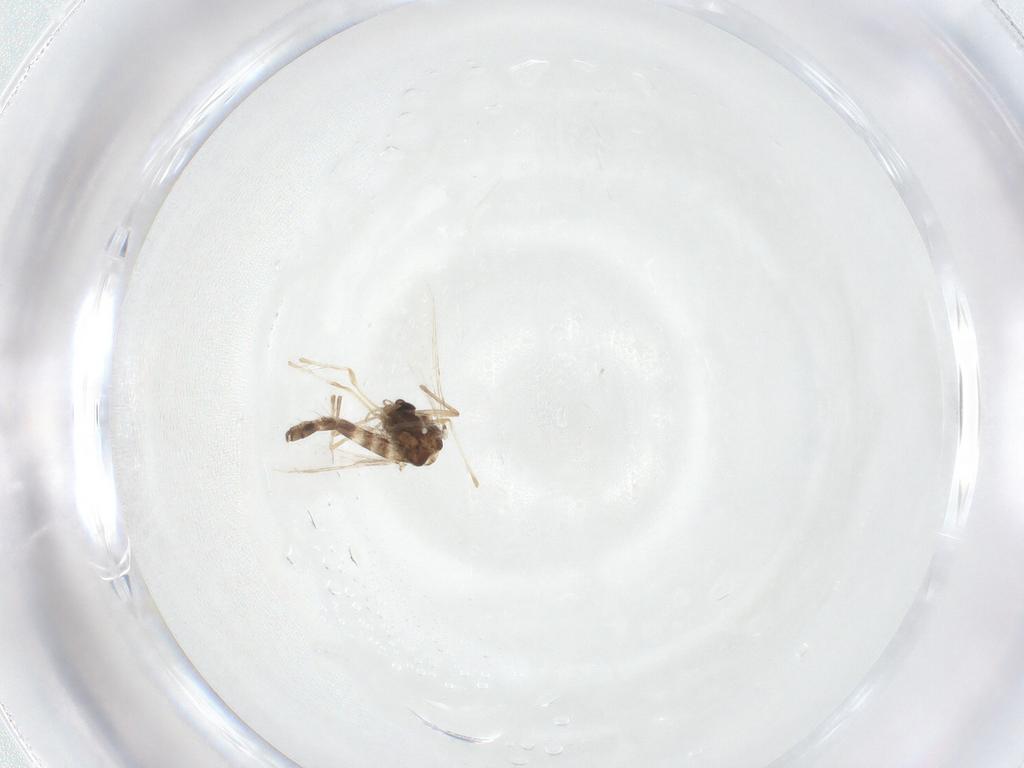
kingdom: Animalia
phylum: Arthropoda
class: Insecta
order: Diptera
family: Chironomidae
